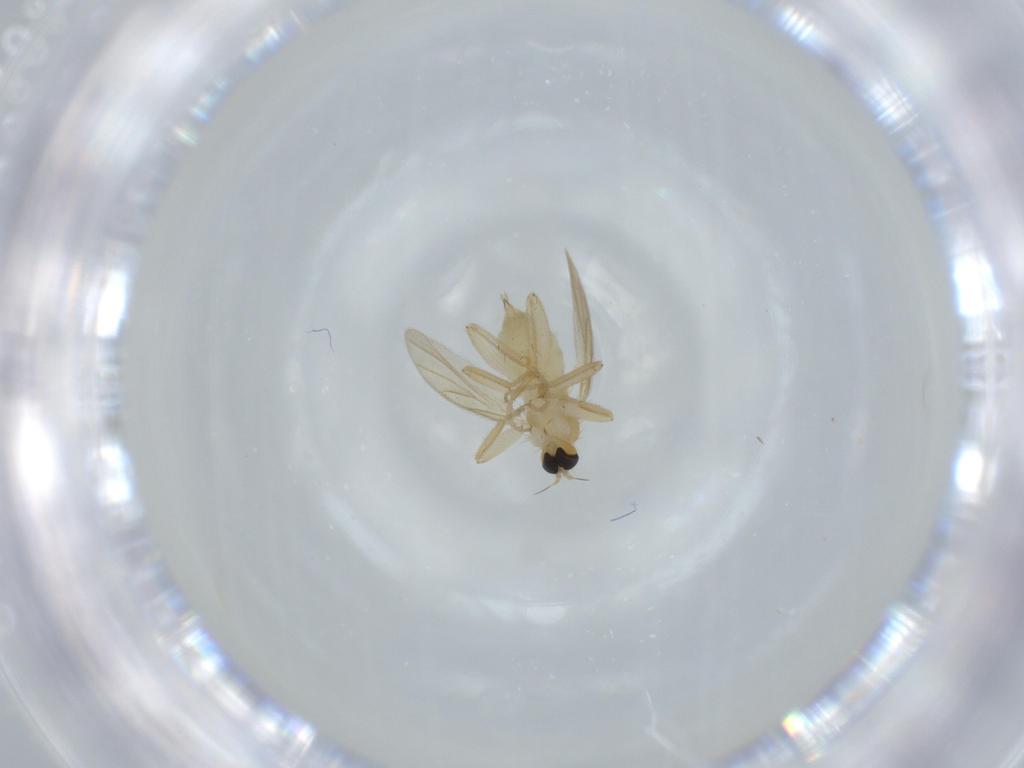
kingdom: Animalia
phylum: Arthropoda
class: Insecta
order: Diptera
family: Hybotidae
